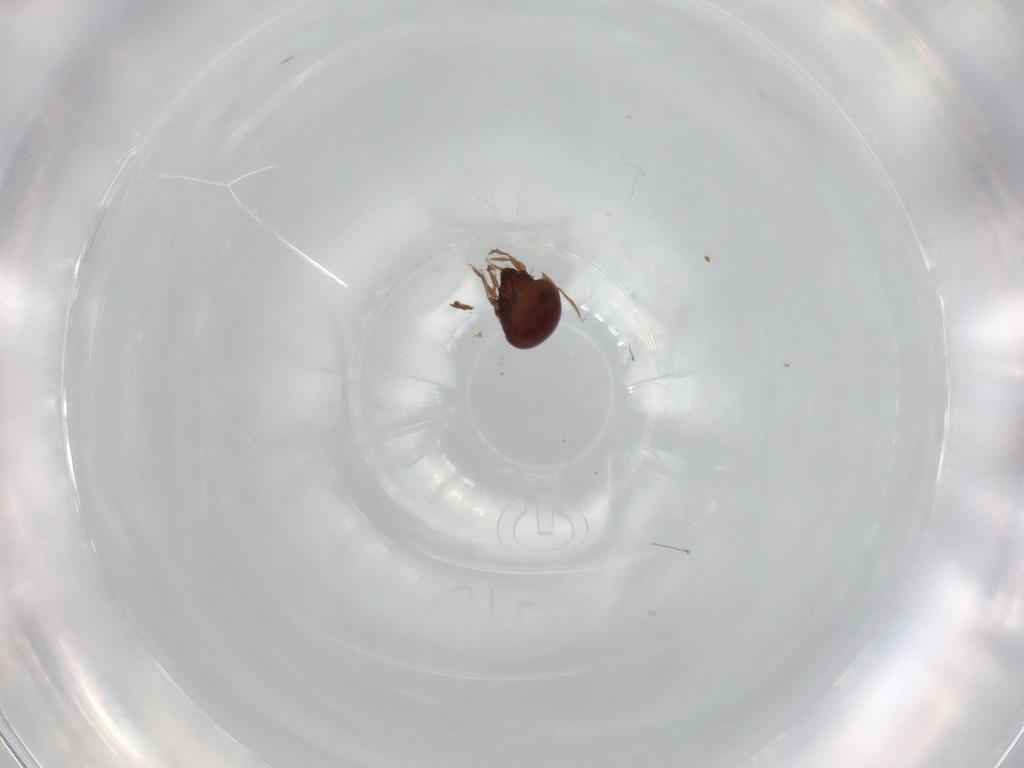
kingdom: Animalia
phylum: Arthropoda
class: Arachnida
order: Sarcoptiformes
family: Mochlozetidae
